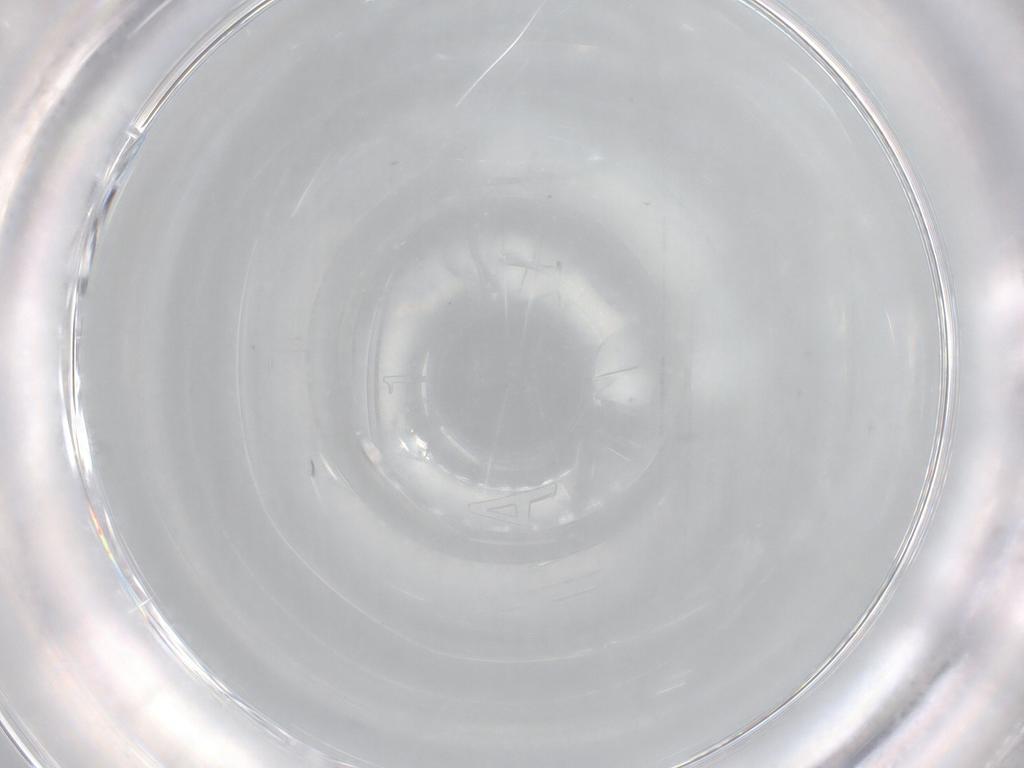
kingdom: Animalia
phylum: Arthropoda
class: Insecta
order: Diptera
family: Cecidomyiidae
